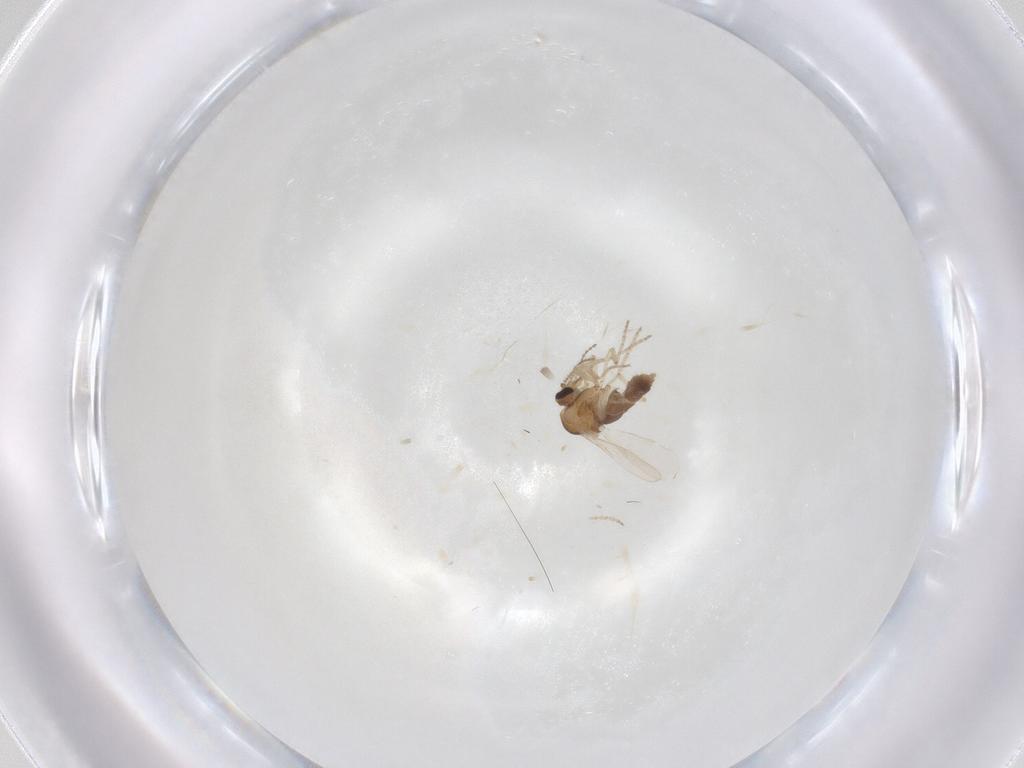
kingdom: Animalia
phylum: Arthropoda
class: Insecta
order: Diptera
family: Ceratopogonidae
